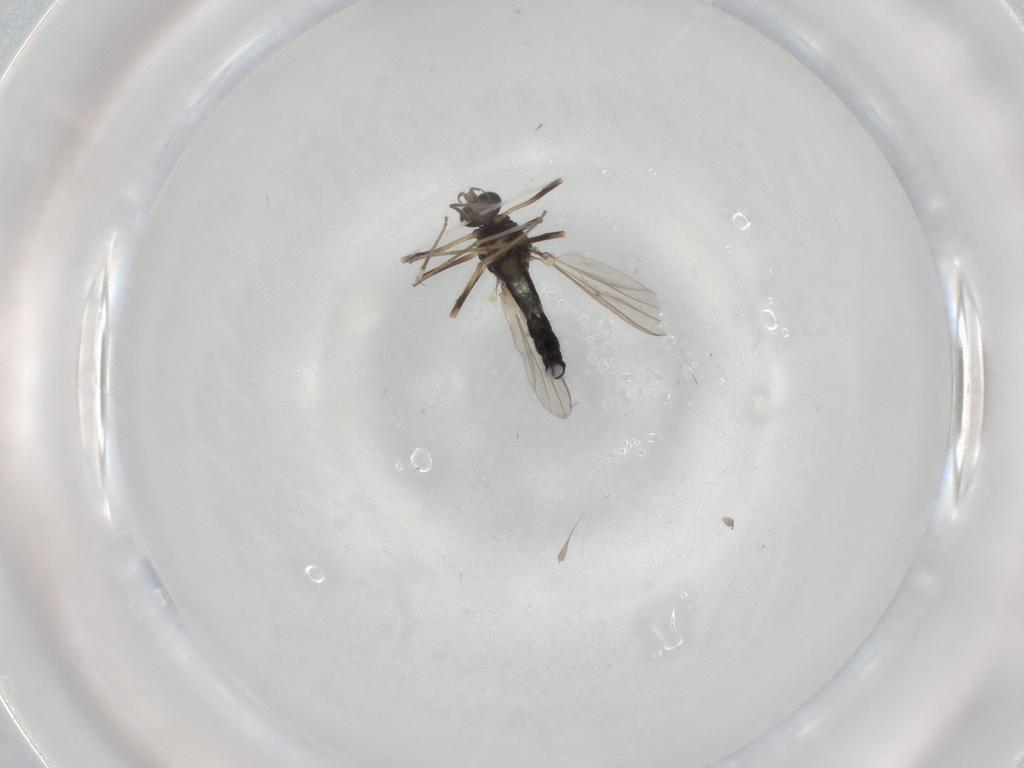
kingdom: Animalia
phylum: Arthropoda
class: Insecta
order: Diptera
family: Chironomidae
